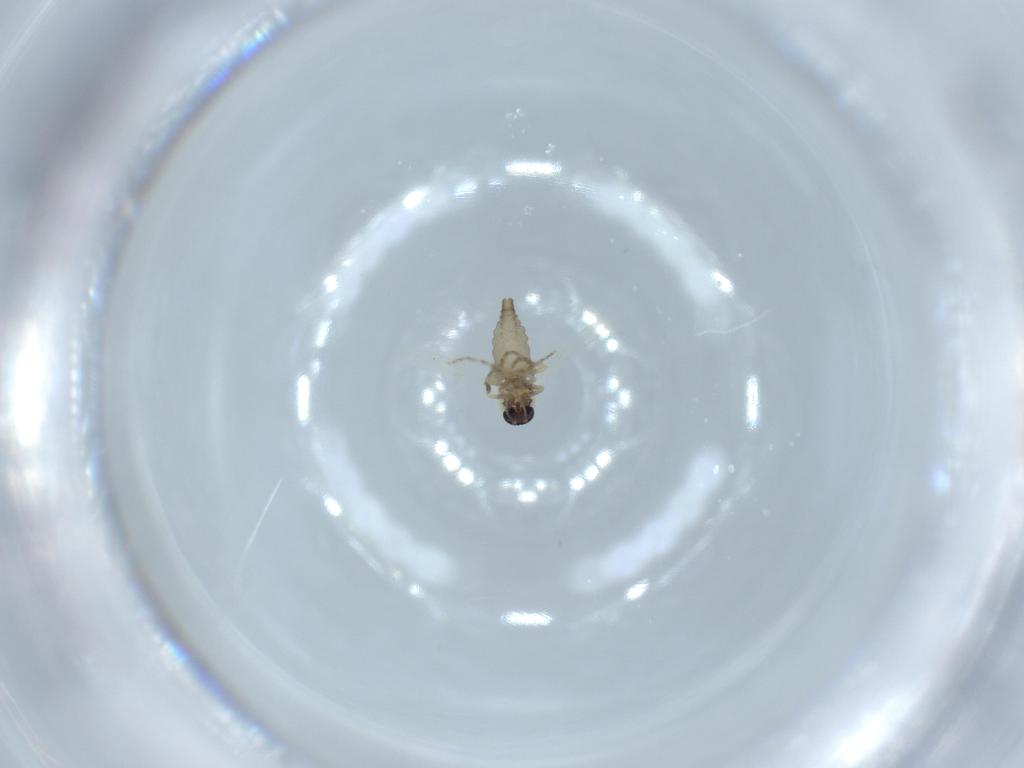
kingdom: Animalia
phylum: Arthropoda
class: Insecta
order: Diptera
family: Ceratopogonidae
